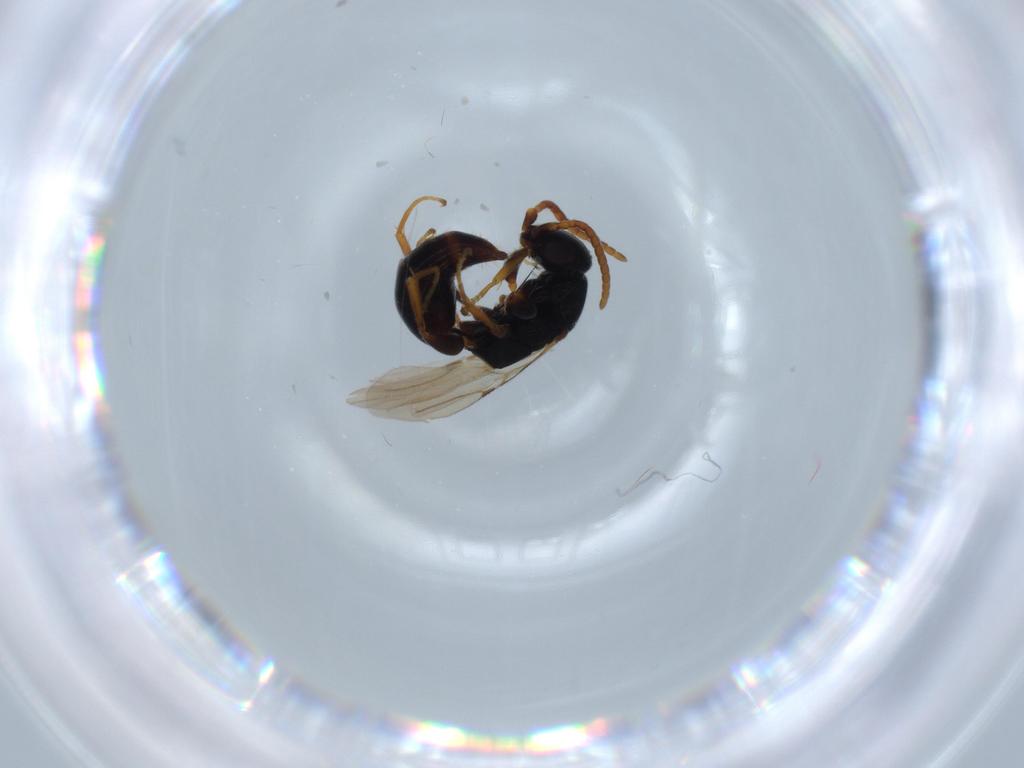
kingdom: Animalia
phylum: Arthropoda
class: Insecta
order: Hymenoptera
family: Bethylidae
